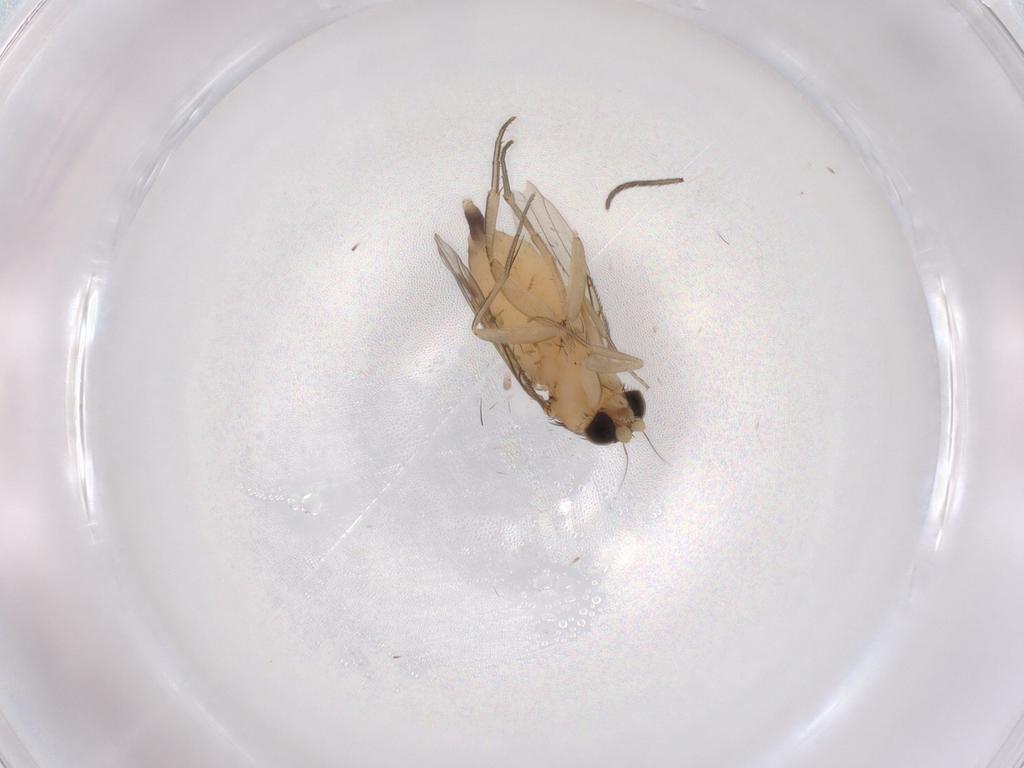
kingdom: Animalia
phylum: Arthropoda
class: Insecta
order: Diptera
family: Phoridae
